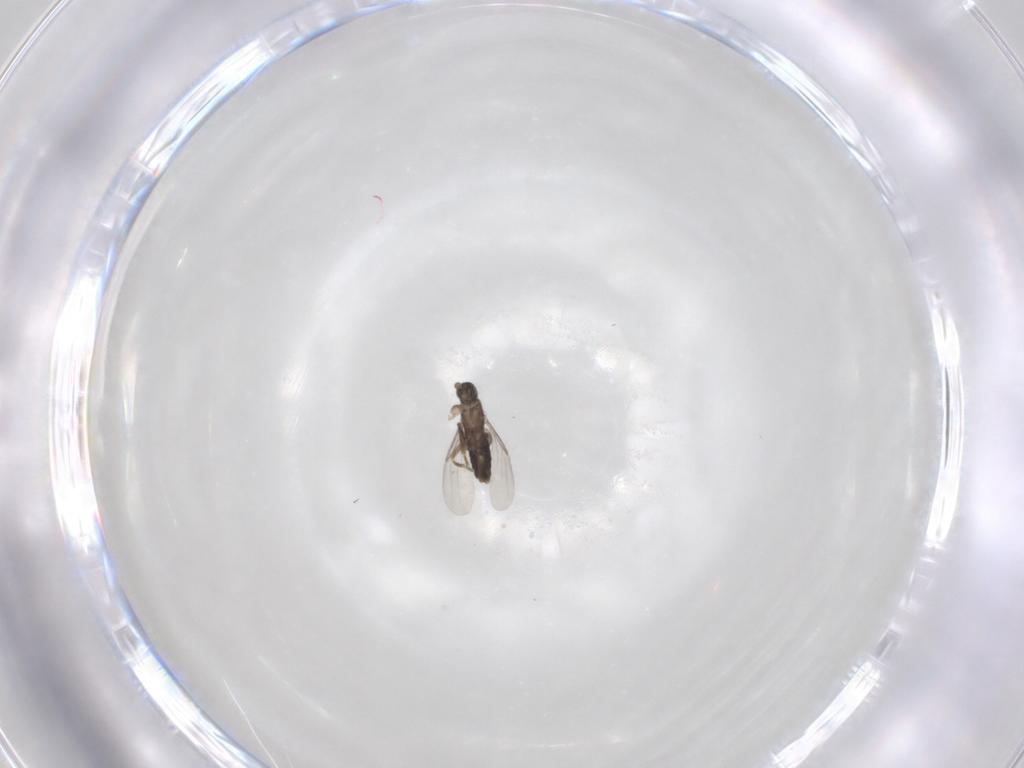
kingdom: Animalia
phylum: Arthropoda
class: Insecta
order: Diptera
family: Phoridae
